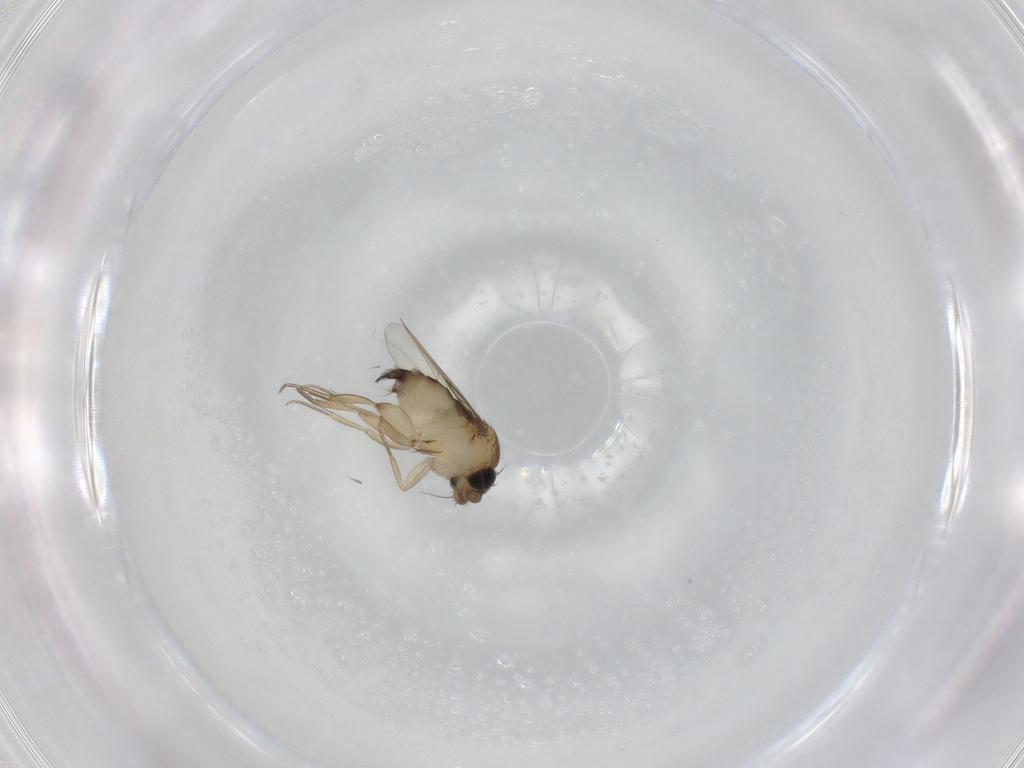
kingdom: Animalia
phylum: Arthropoda
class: Insecta
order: Diptera
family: Phoridae
